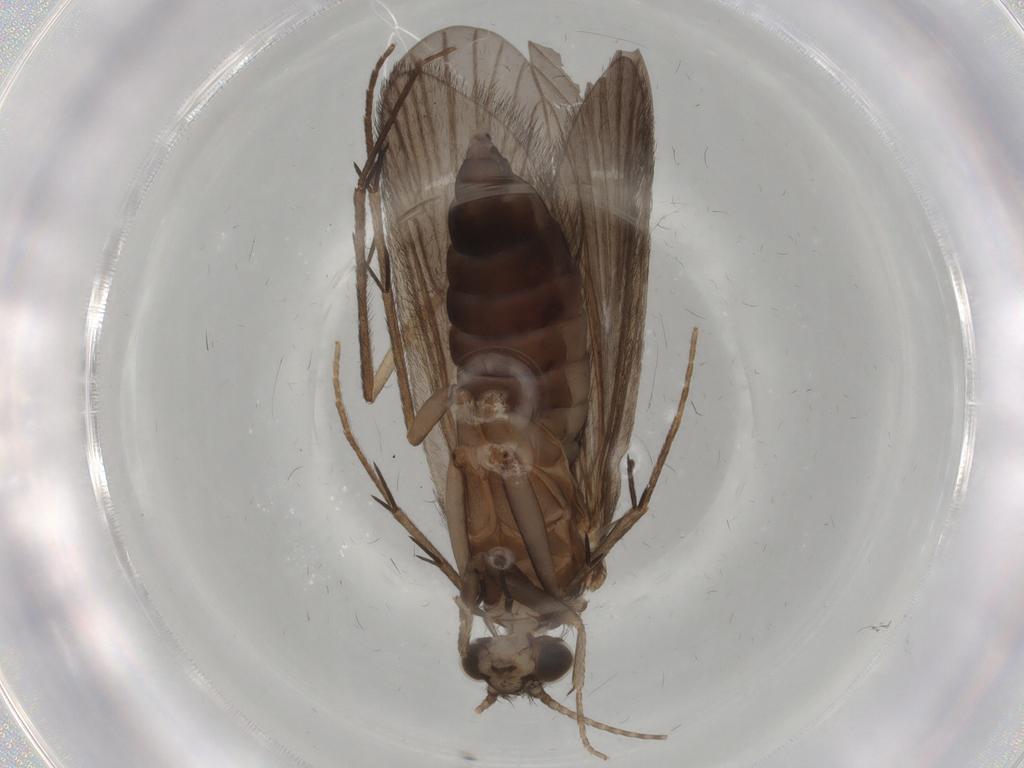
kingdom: Animalia
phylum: Arthropoda
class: Insecta
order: Trichoptera
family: Philopotamidae
